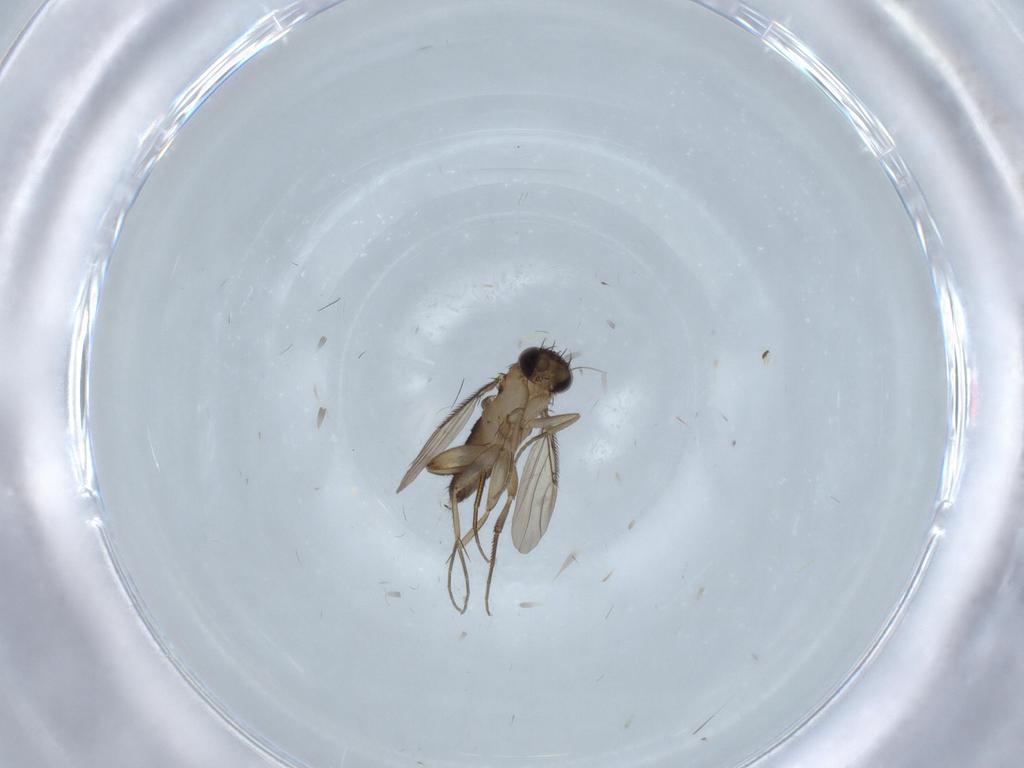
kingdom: Animalia
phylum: Arthropoda
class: Insecta
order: Diptera
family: Phoridae
